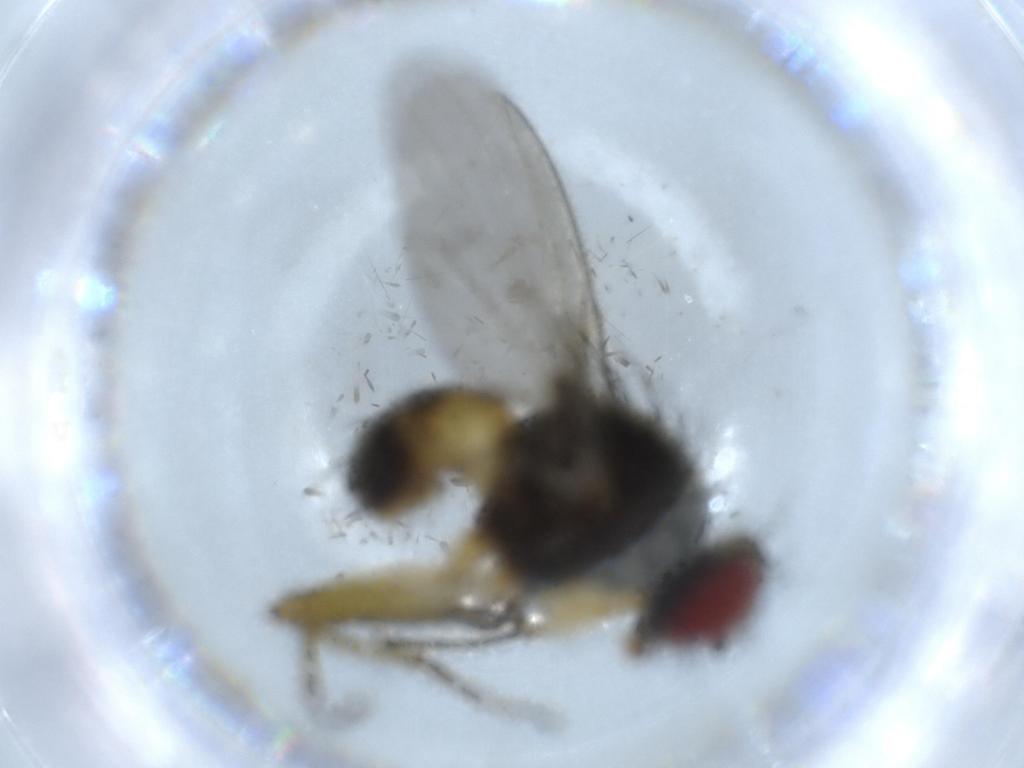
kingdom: Animalia
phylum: Arthropoda
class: Insecta
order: Diptera
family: Muscidae
